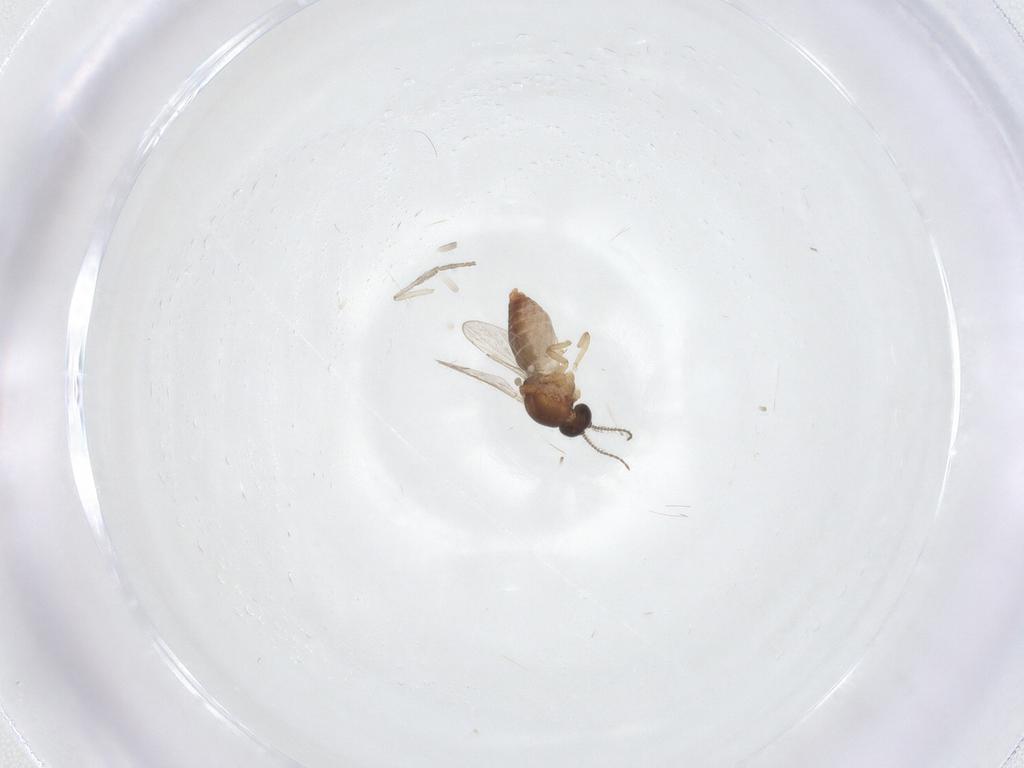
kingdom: Animalia
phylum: Arthropoda
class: Insecta
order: Diptera
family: Ceratopogonidae
